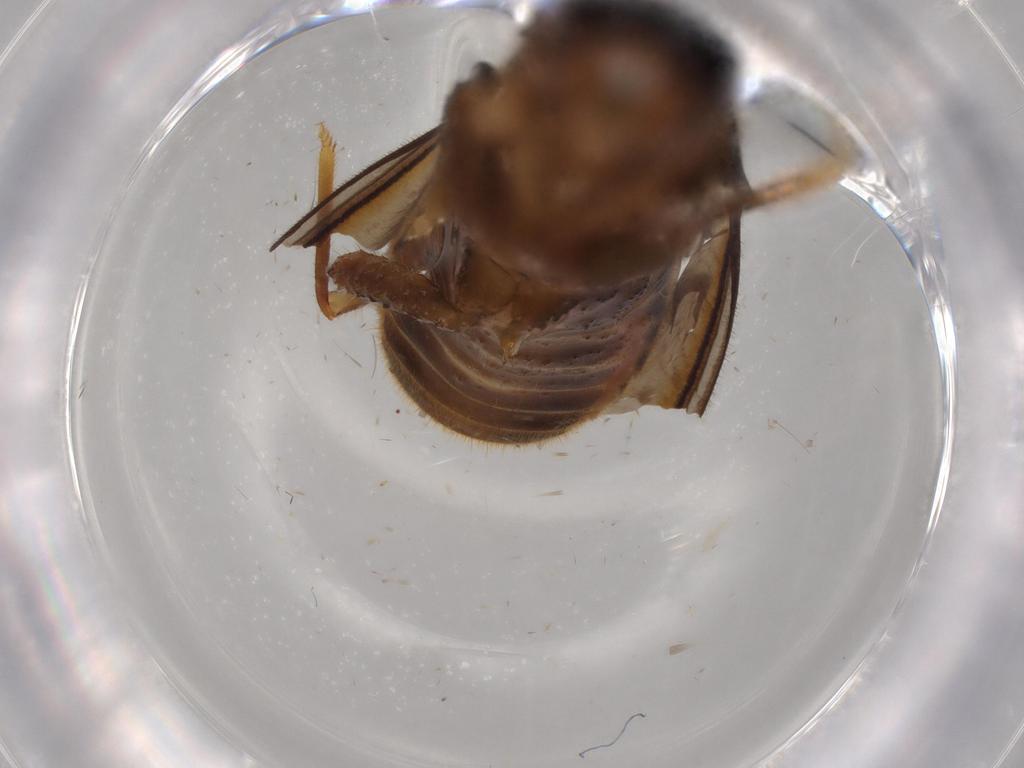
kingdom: Animalia
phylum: Arthropoda
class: Insecta
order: Blattodea
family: Termitidae
